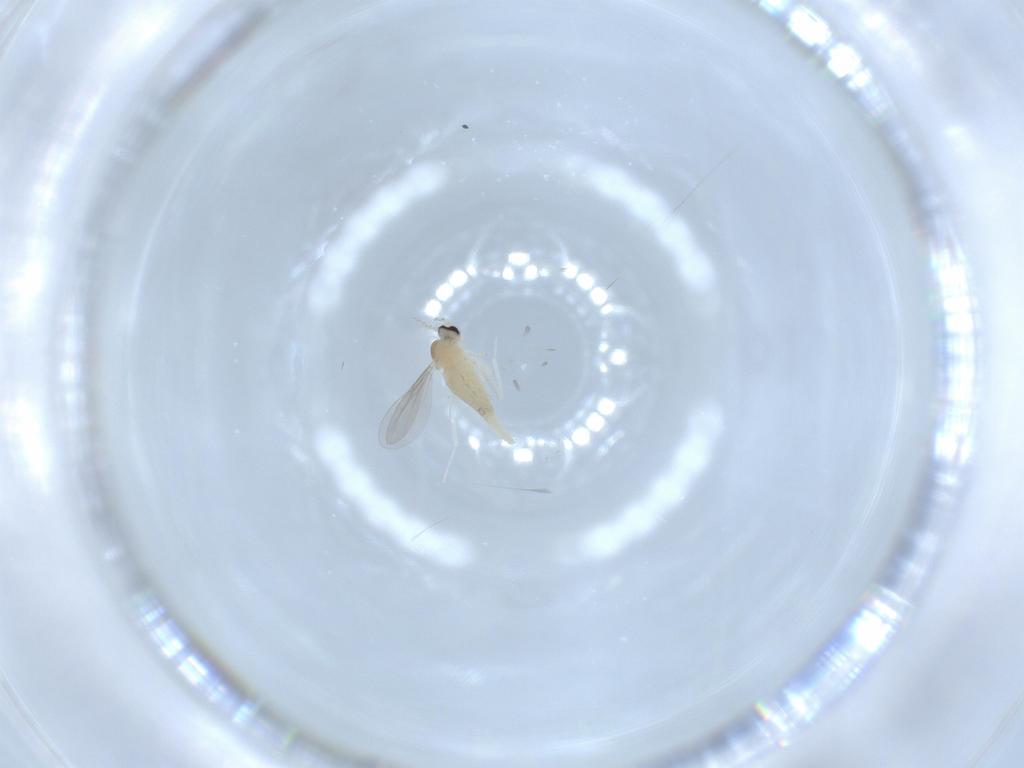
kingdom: Animalia
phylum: Arthropoda
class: Insecta
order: Diptera
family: Cecidomyiidae
